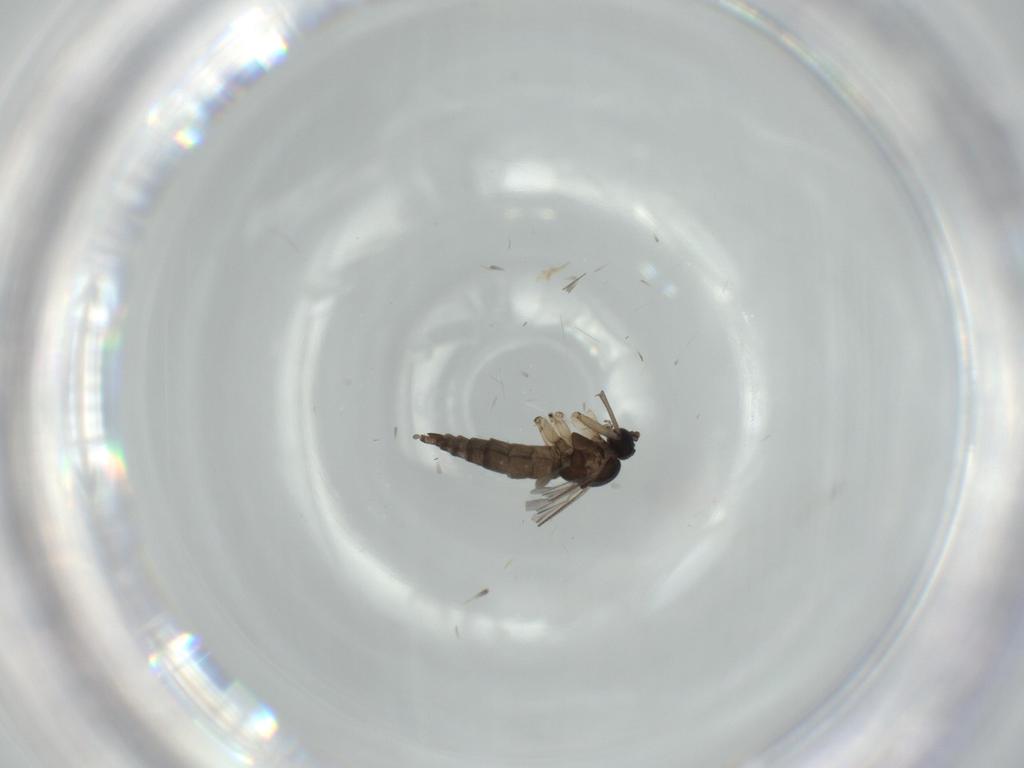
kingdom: Animalia
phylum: Arthropoda
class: Insecta
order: Diptera
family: Sciaridae
